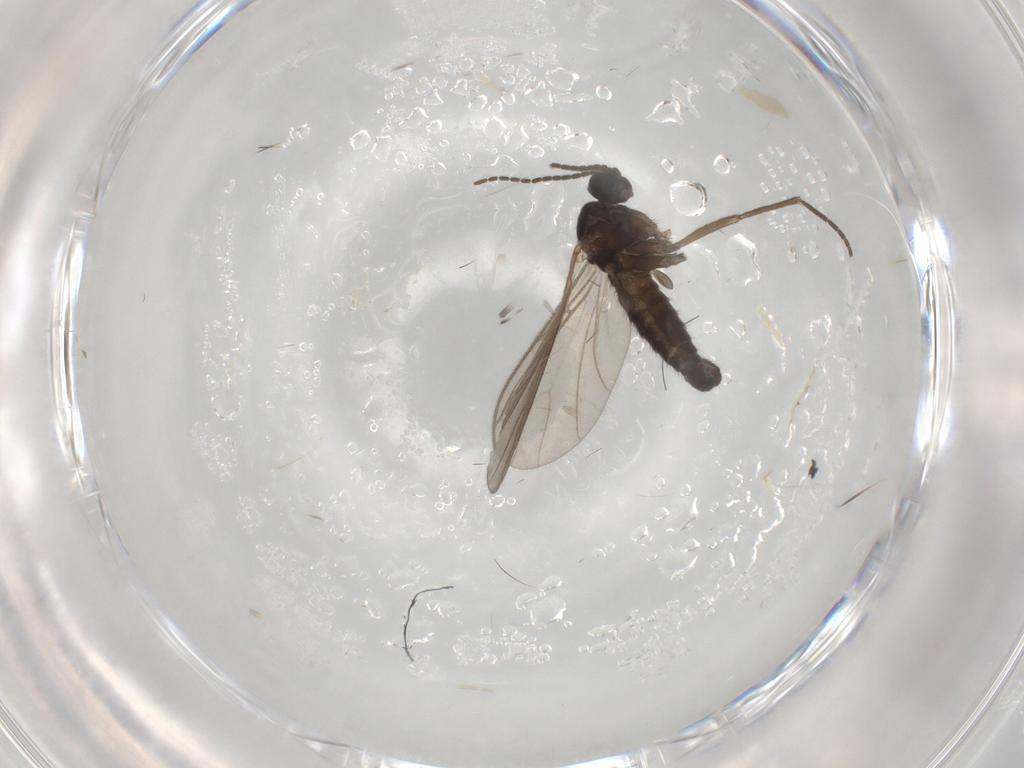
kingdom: Animalia
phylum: Arthropoda
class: Insecta
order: Diptera
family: Sciaridae
